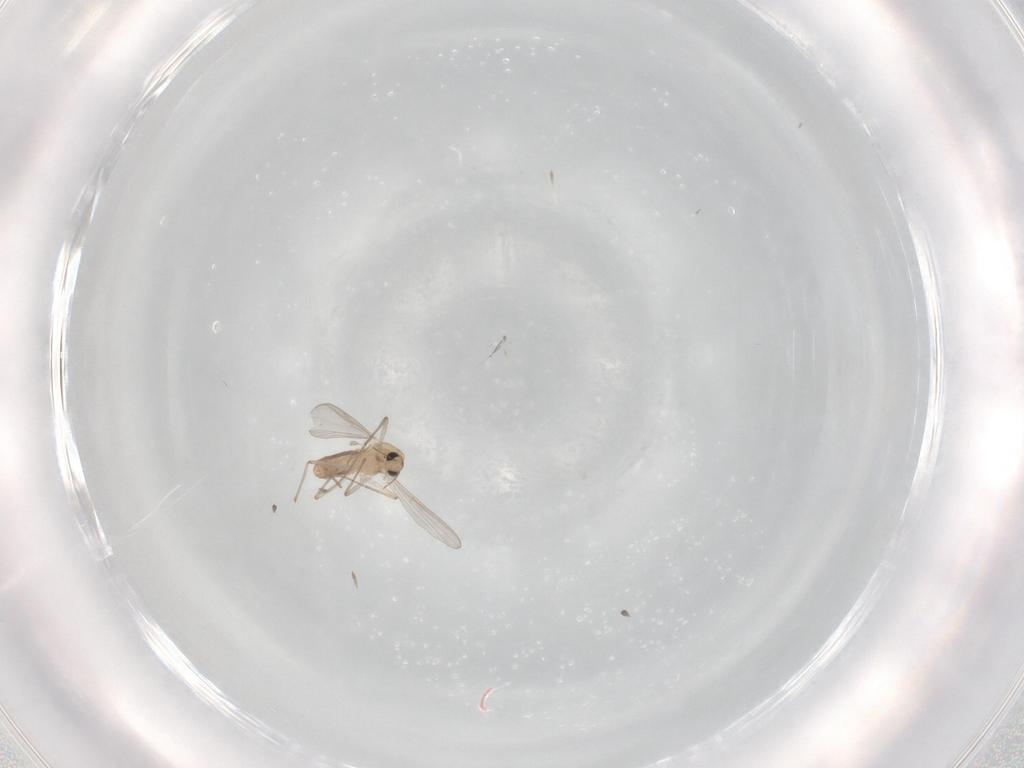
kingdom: Animalia
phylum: Arthropoda
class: Insecta
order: Diptera
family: Chironomidae
